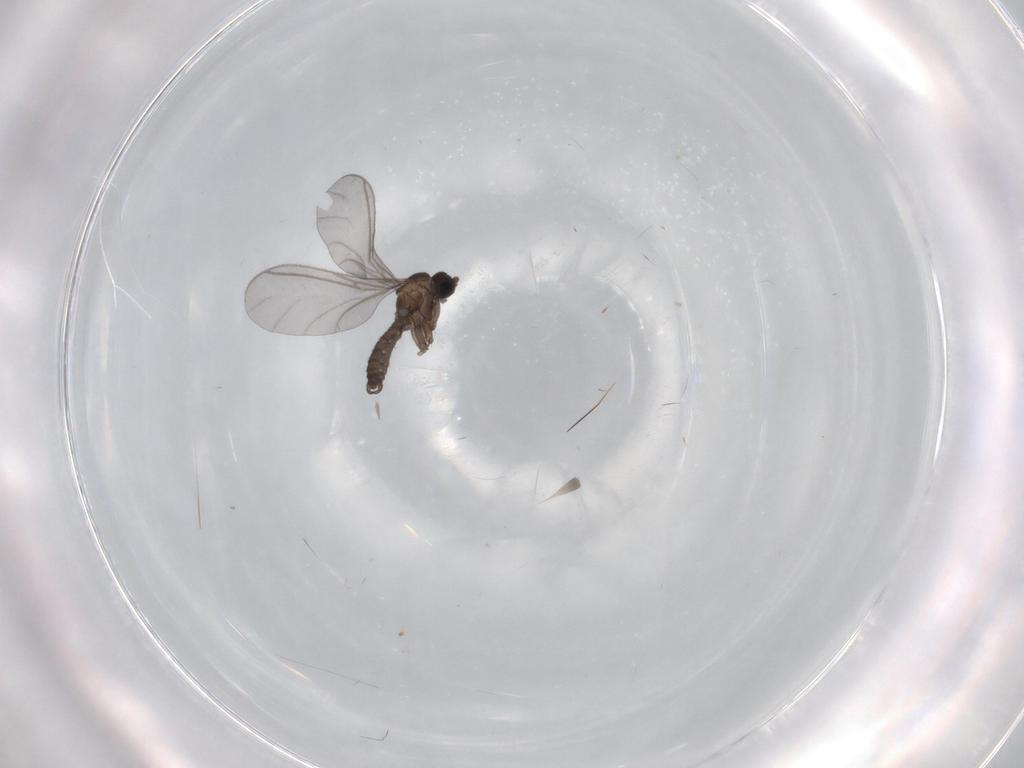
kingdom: Animalia
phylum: Arthropoda
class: Insecta
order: Diptera
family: Sciaridae
